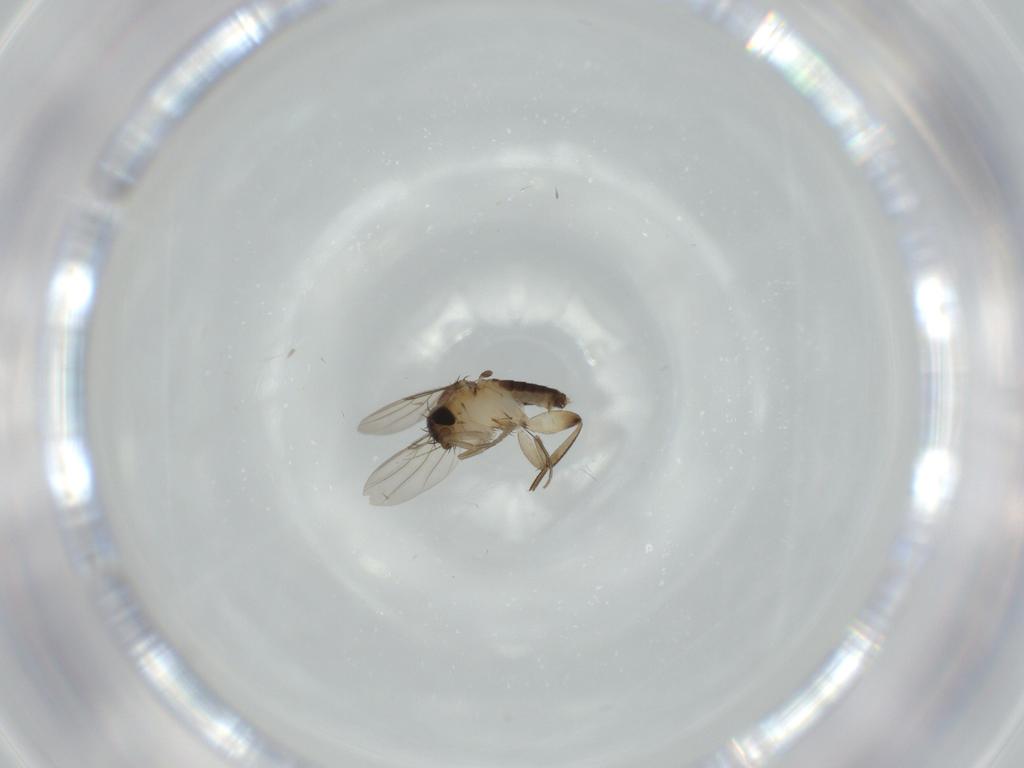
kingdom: Animalia
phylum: Arthropoda
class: Insecta
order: Diptera
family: Phoridae
